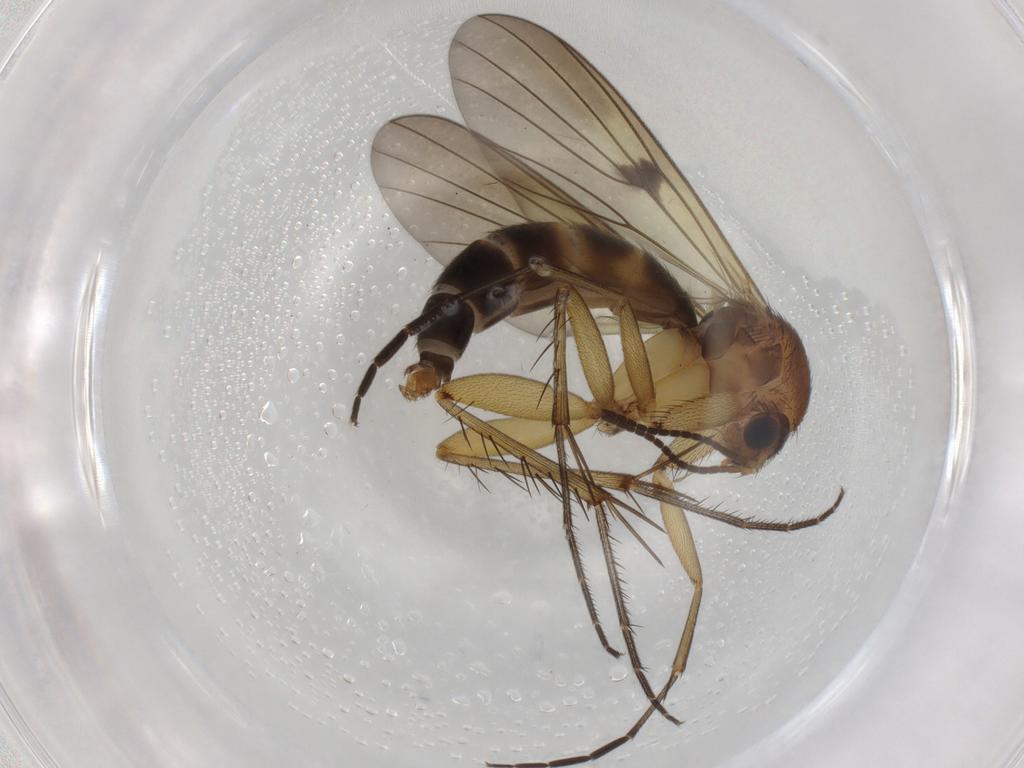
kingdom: Animalia
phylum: Arthropoda
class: Insecta
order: Diptera
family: Mycetophilidae
